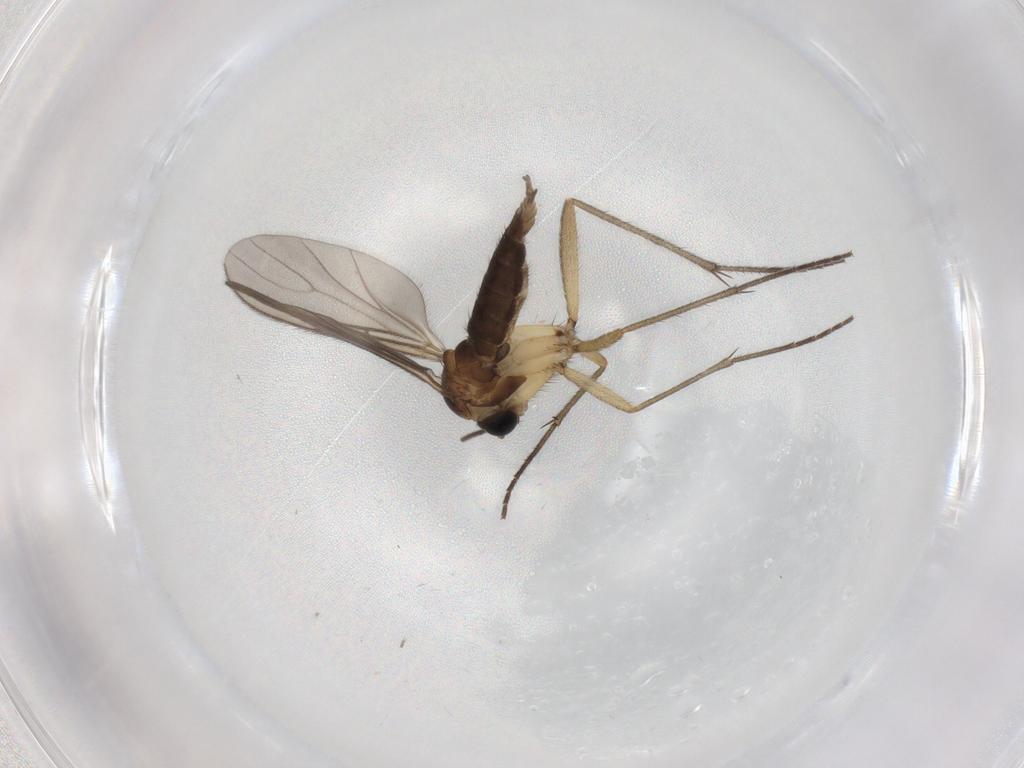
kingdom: Animalia
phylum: Arthropoda
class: Insecta
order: Diptera
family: Sciaridae
